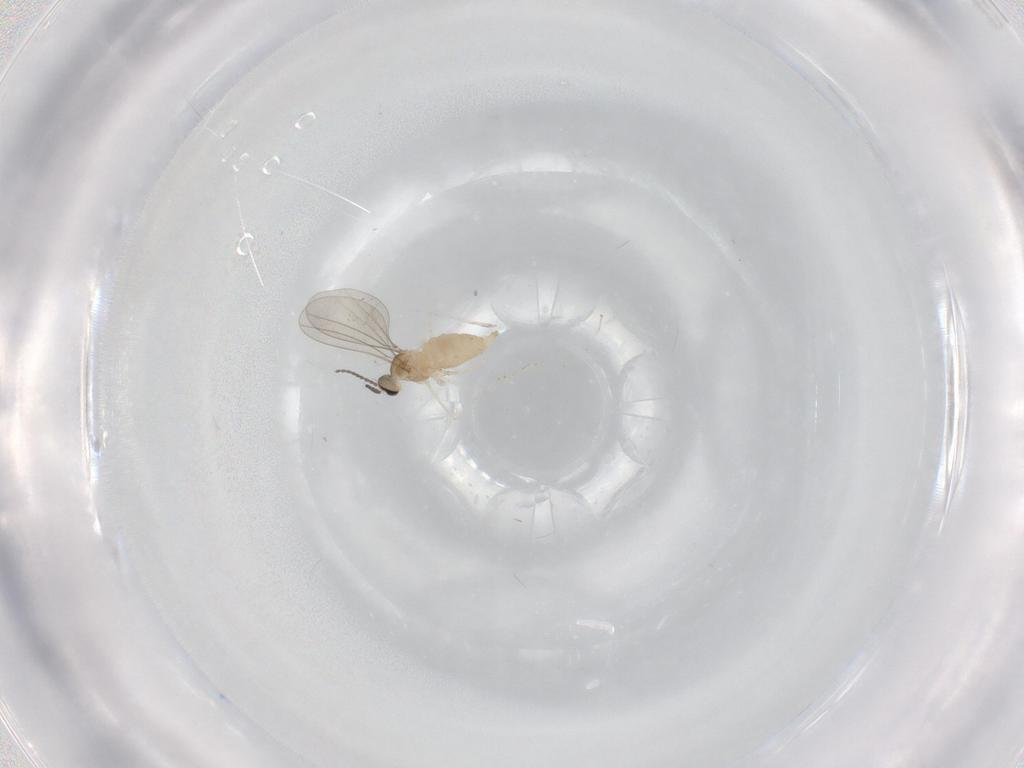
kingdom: Animalia
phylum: Arthropoda
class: Insecta
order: Diptera
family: Cecidomyiidae
